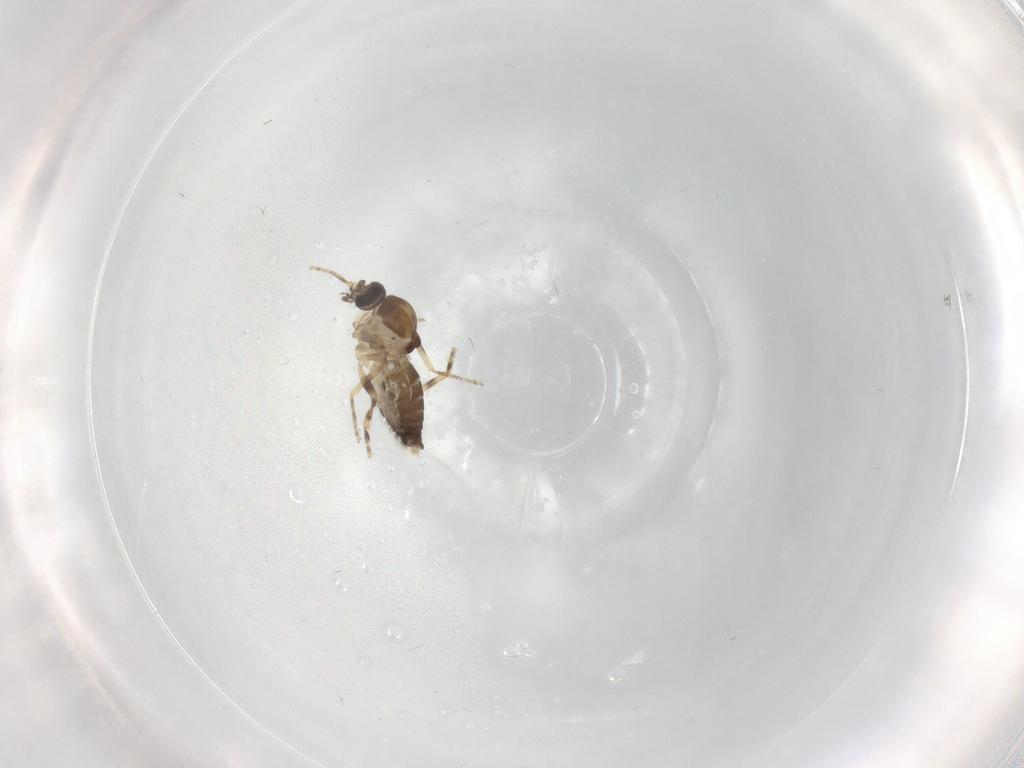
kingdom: Animalia
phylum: Arthropoda
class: Insecta
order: Diptera
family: Ceratopogonidae
